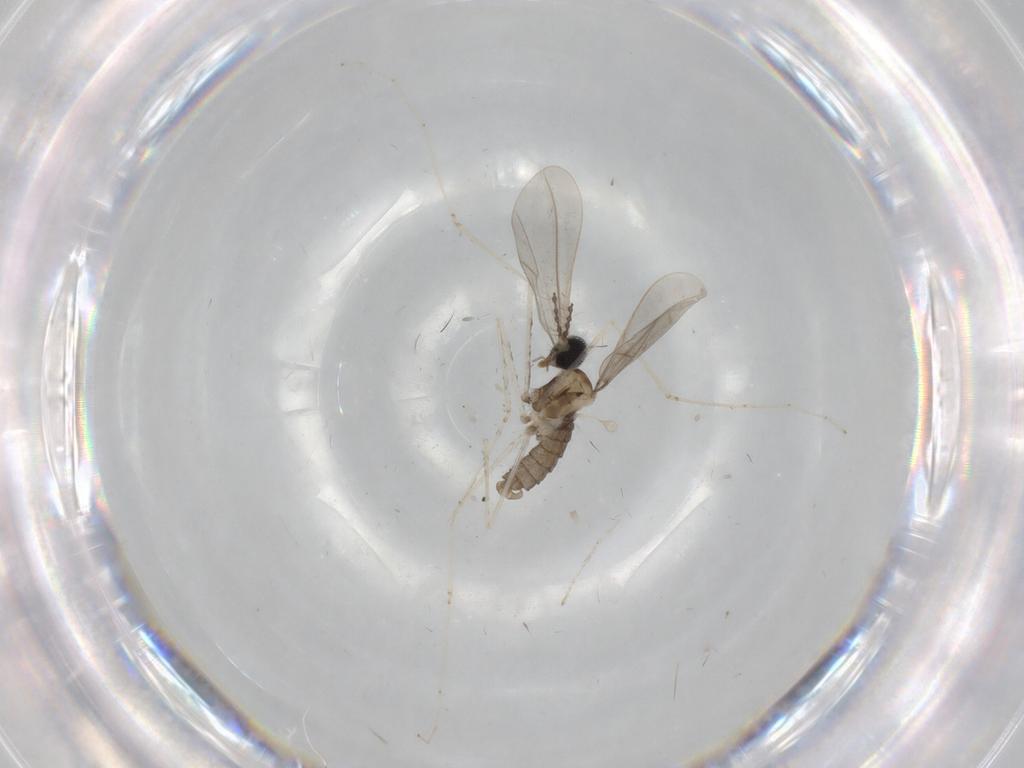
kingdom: Animalia
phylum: Arthropoda
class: Insecta
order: Diptera
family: Cecidomyiidae
